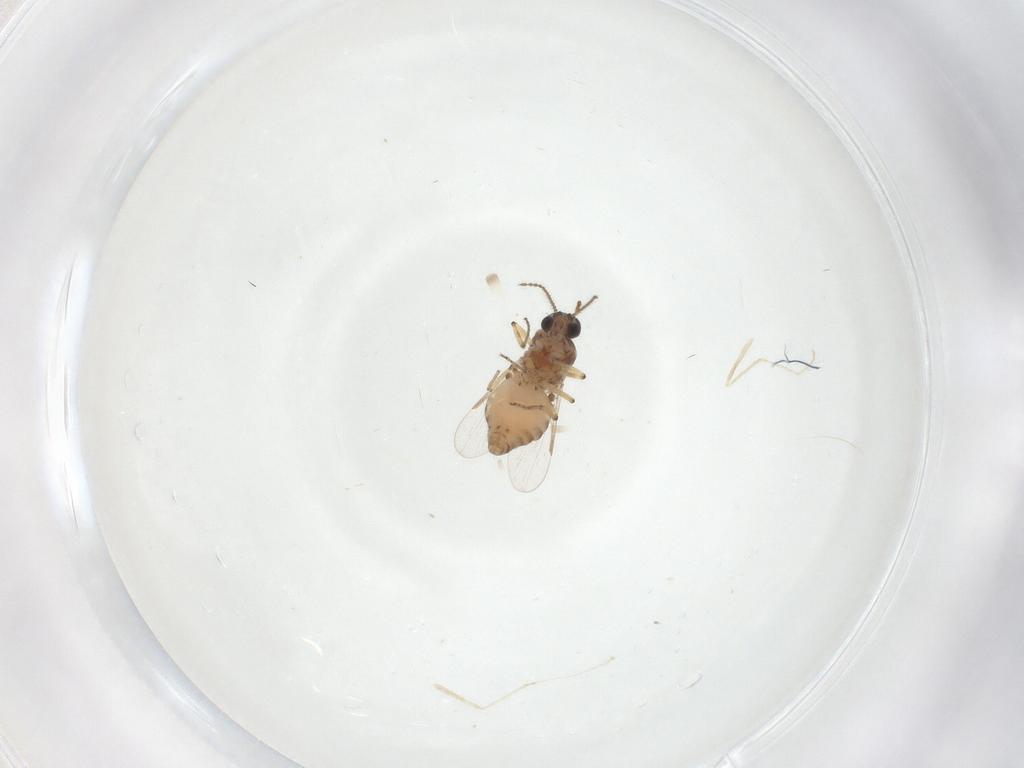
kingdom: Animalia
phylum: Arthropoda
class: Insecta
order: Diptera
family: Ceratopogonidae
